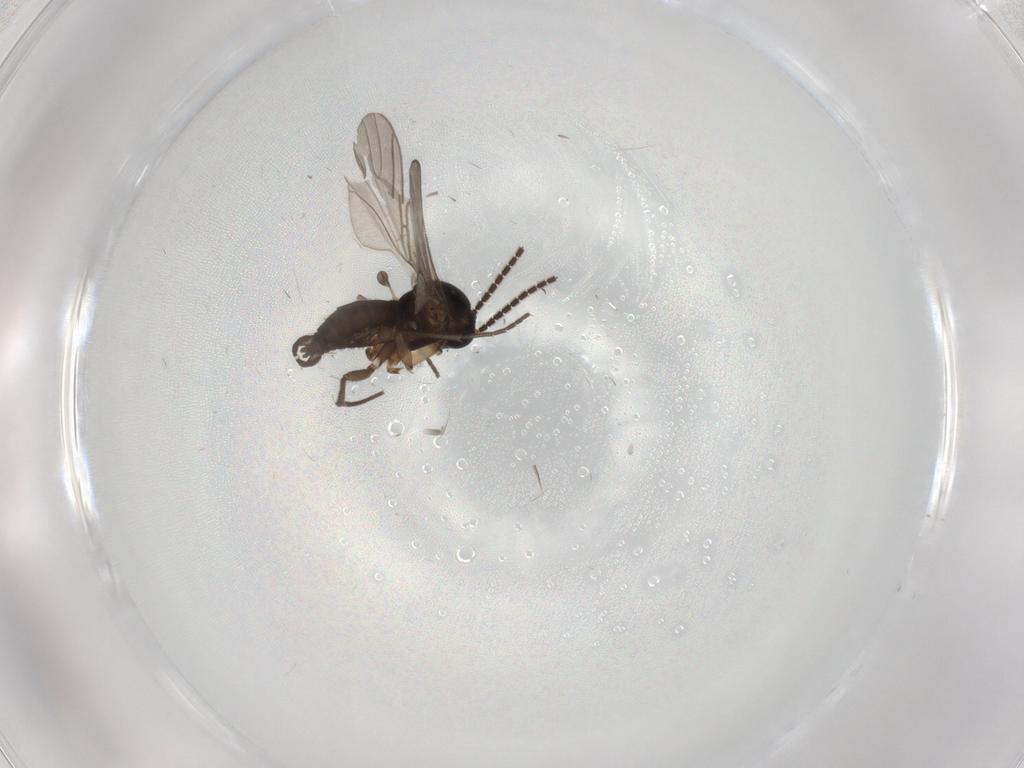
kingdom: Animalia
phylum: Arthropoda
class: Insecta
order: Diptera
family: Sciaridae
